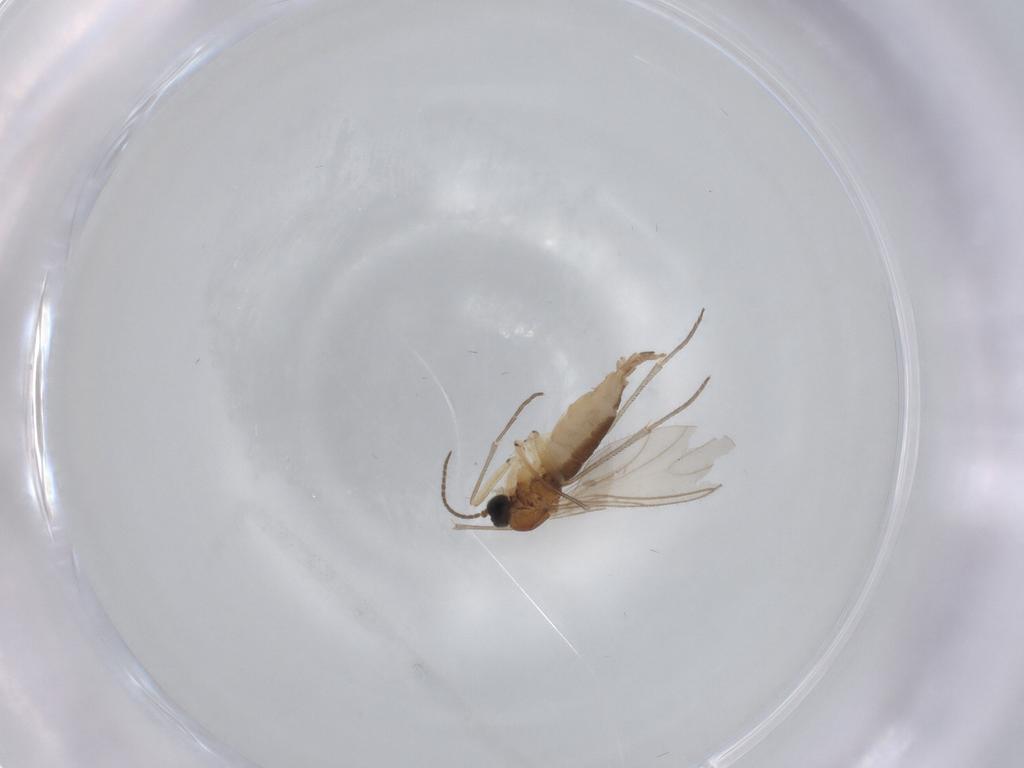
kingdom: Animalia
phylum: Arthropoda
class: Insecta
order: Diptera
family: Sciaridae
